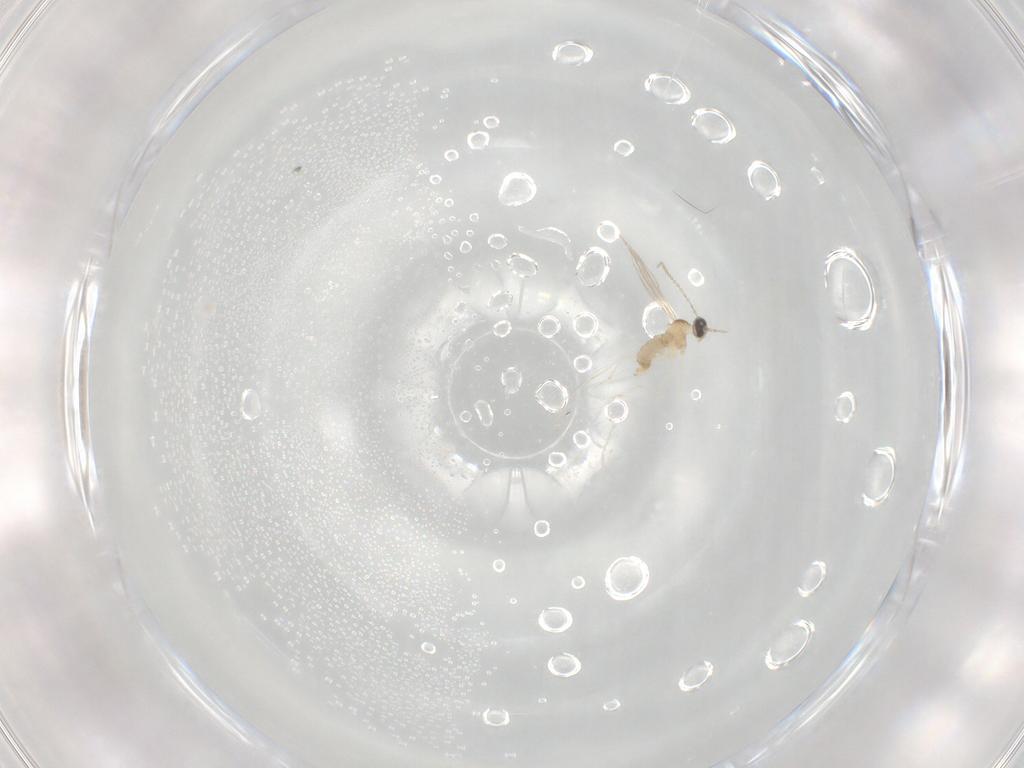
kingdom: Animalia
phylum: Arthropoda
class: Insecta
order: Diptera
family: Cecidomyiidae
